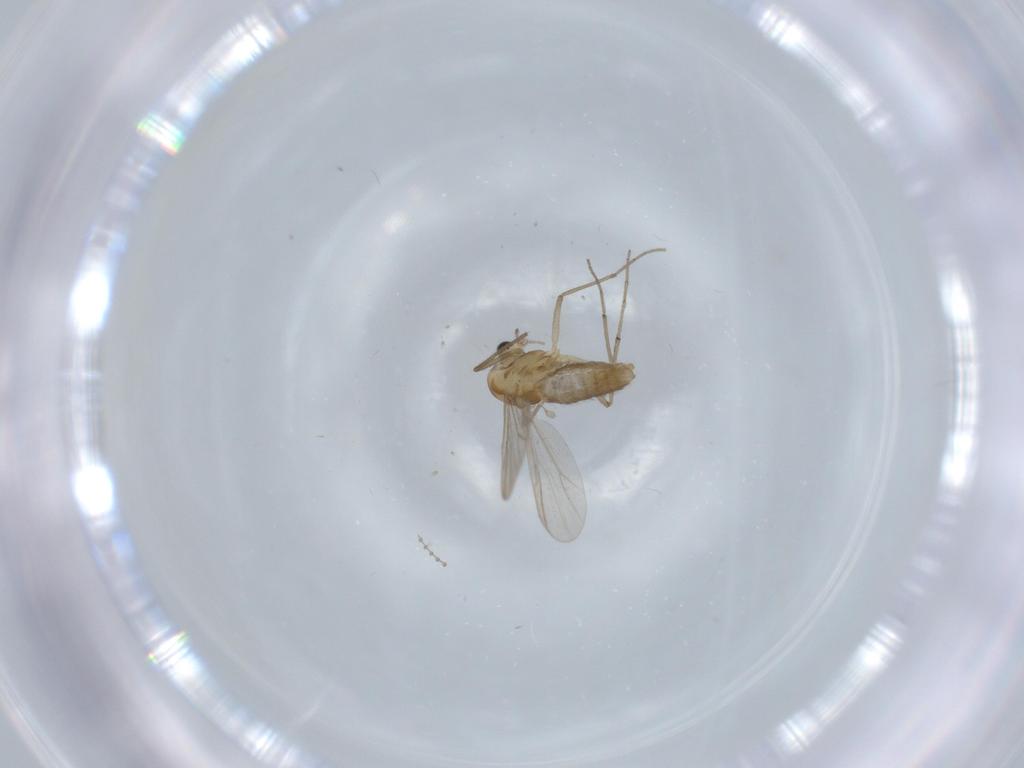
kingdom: Animalia
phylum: Arthropoda
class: Insecta
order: Diptera
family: Chironomidae
